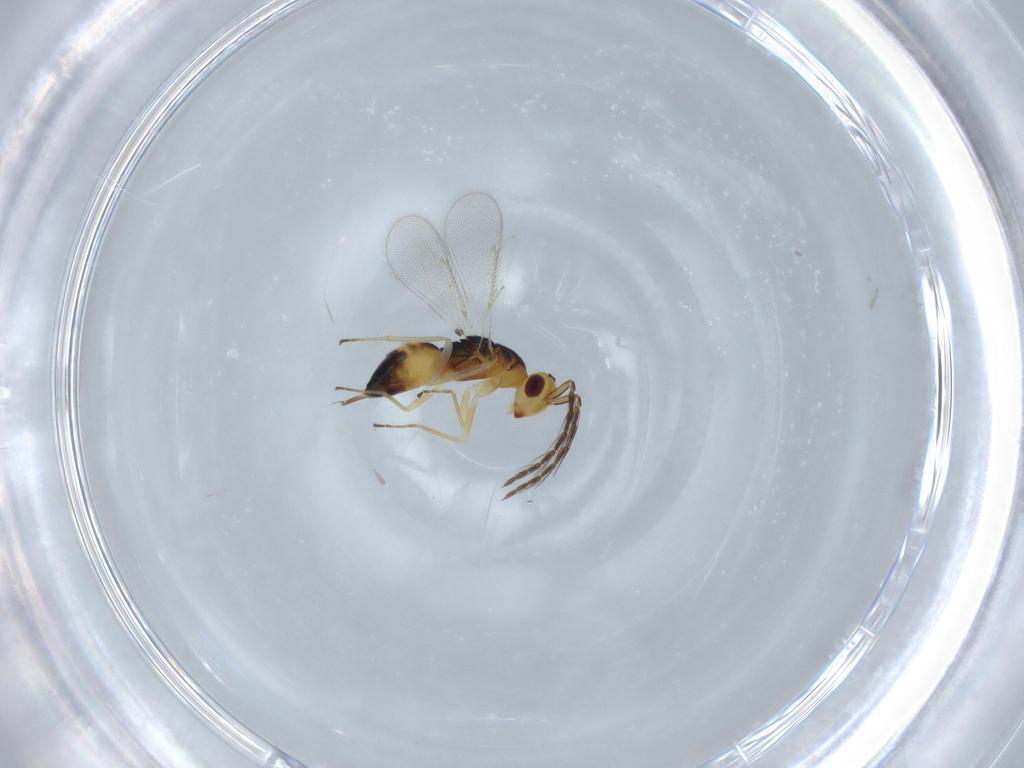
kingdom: Animalia
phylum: Arthropoda
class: Insecta
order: Hymenoptera
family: Eulophidae
